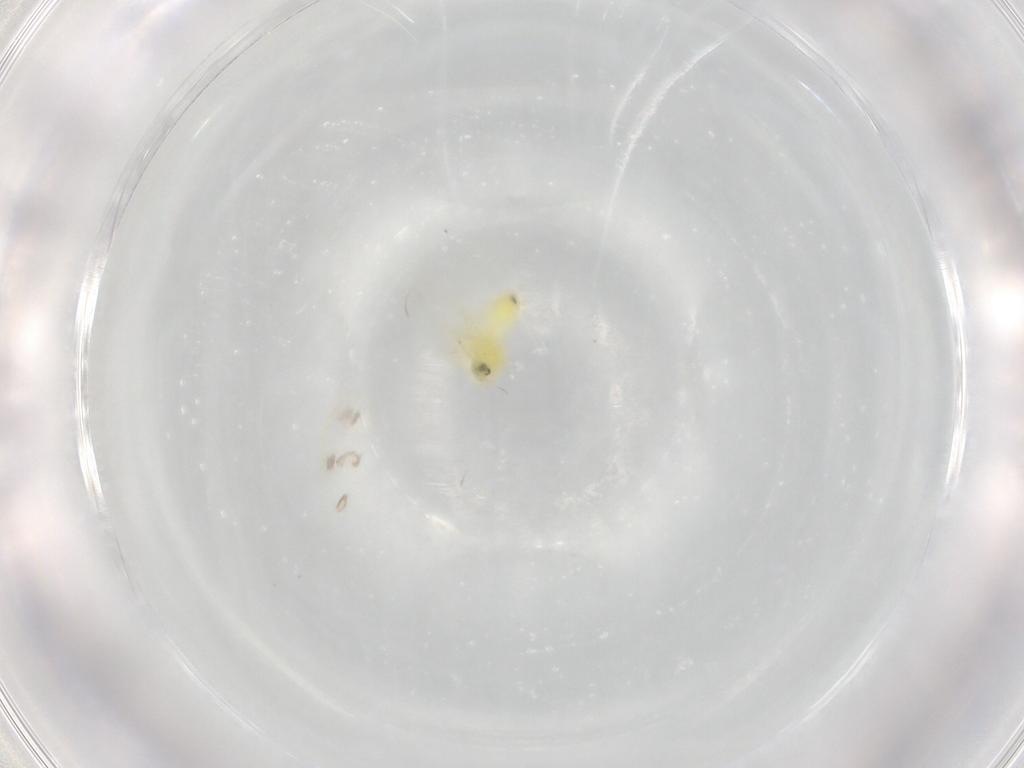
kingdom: Animalia
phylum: Arthropoda
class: Insecta
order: Hemiptera
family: Aleyrodidae
